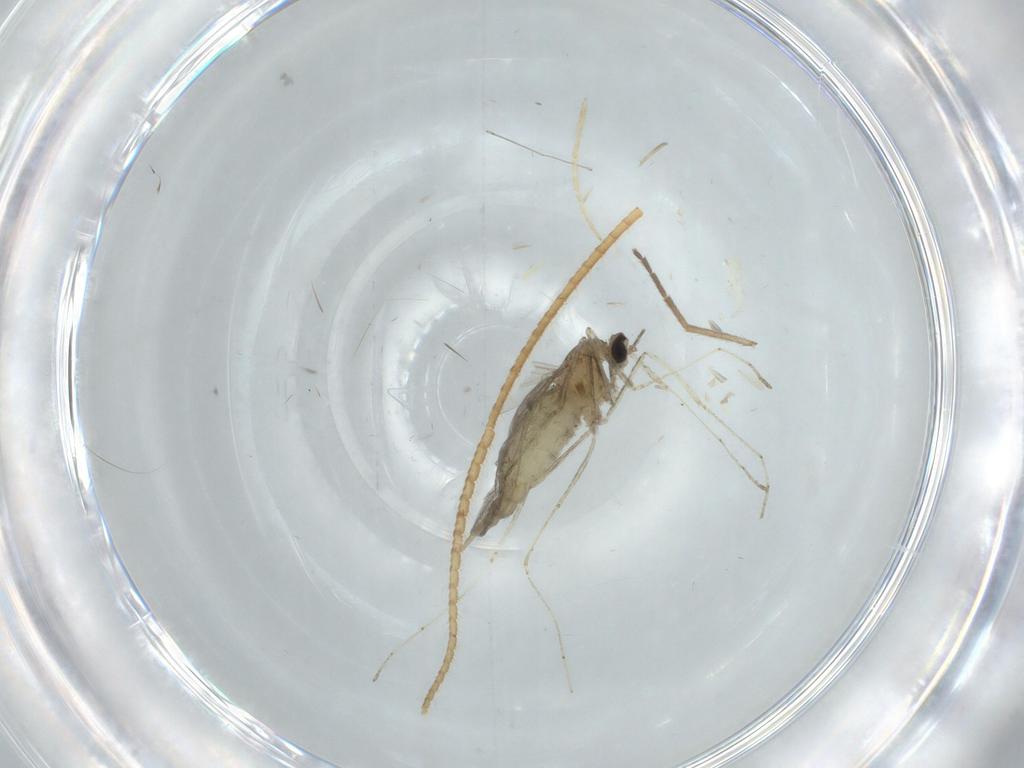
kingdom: Animalia
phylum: Arthropoda
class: Insecta
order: Diptera
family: Cecidomyiidae
